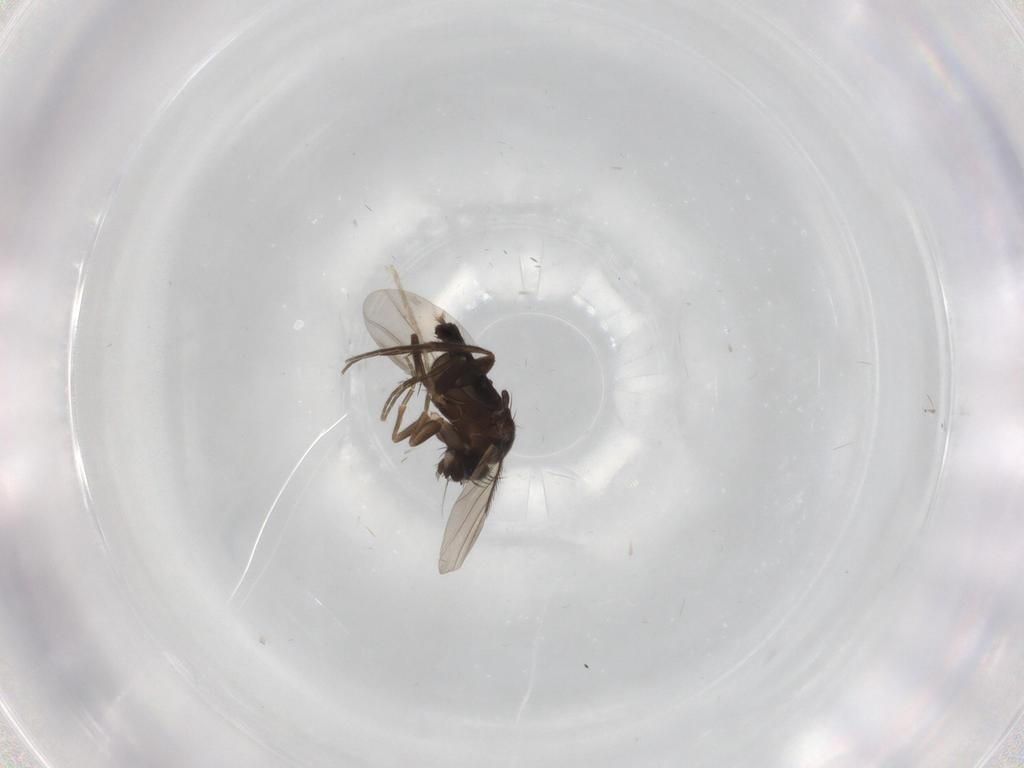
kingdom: Animalia
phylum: Arthropoda
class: Insecta
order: Diptera
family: Phoridae
